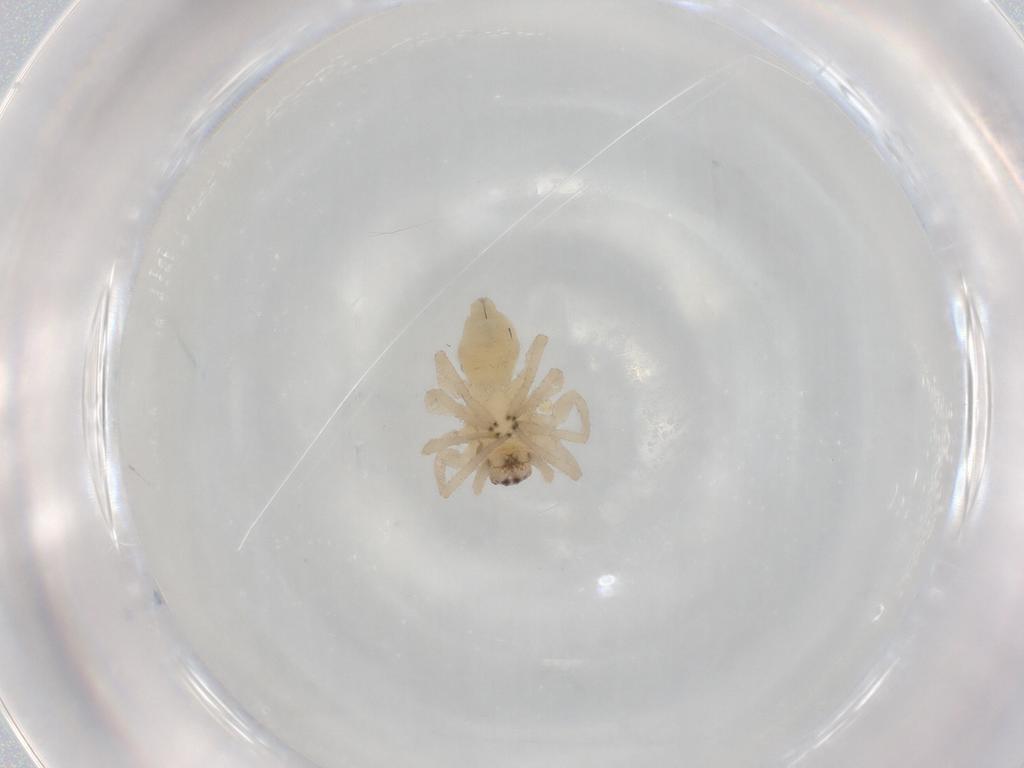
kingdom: Animalia
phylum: Arthropoda
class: Arachnida
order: Araneae
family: Cheiracanthiidae
